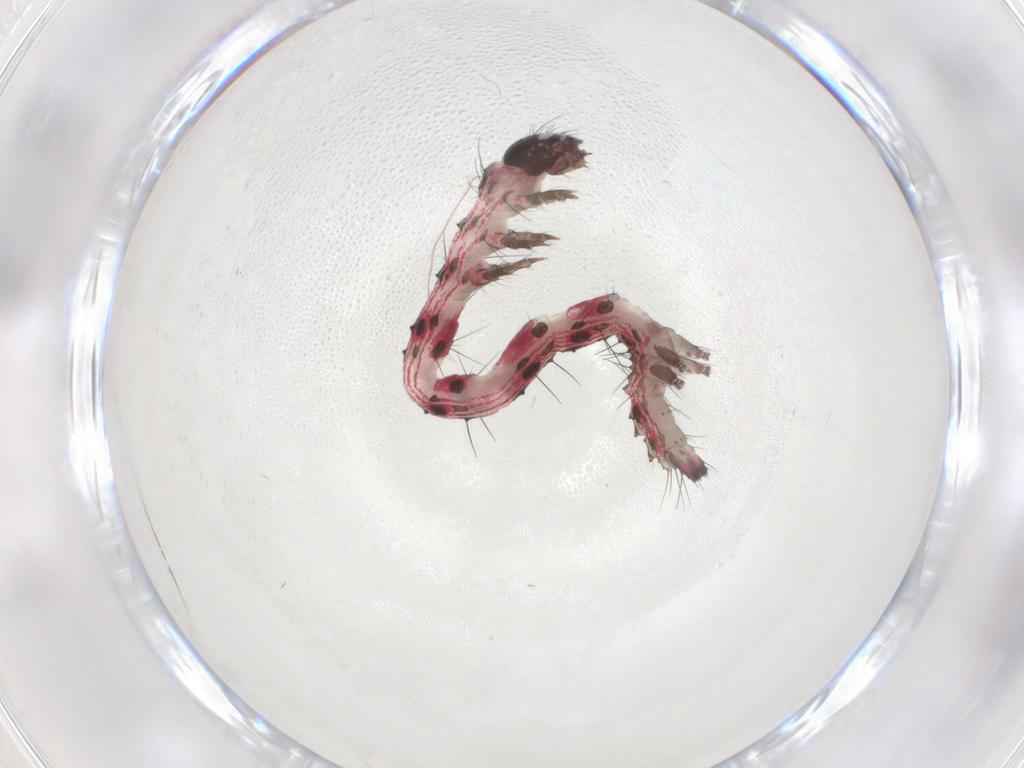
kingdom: Animalia
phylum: Arthropoda
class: Insecta
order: Lepidoptera
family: Erebidae
